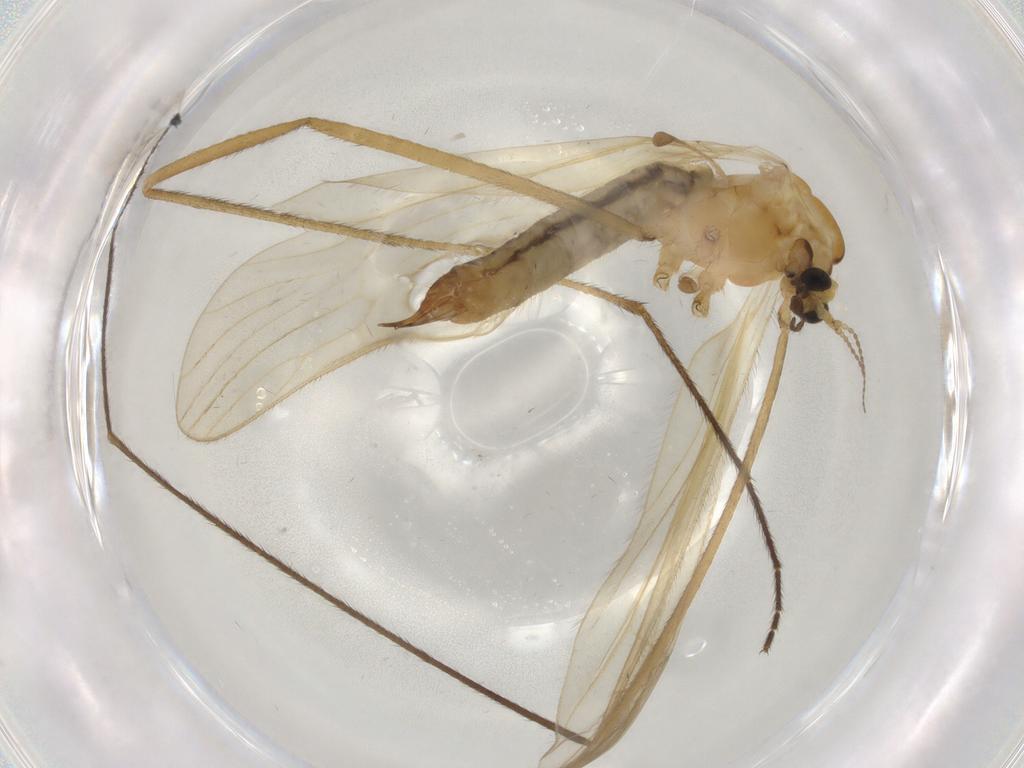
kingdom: Animalia
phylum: Arthropoda
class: Insecta
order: Diptera
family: Limoniidae
